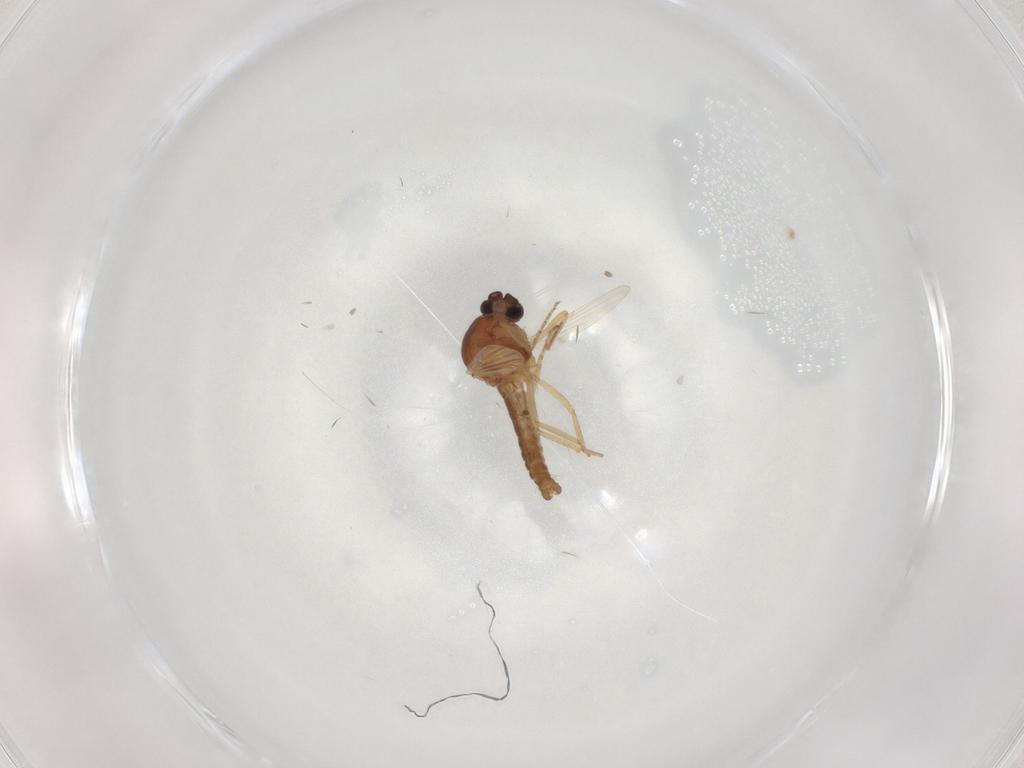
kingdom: Animalia
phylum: Arthropoda
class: Insecta
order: Diptera
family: Ceratopogonidae
